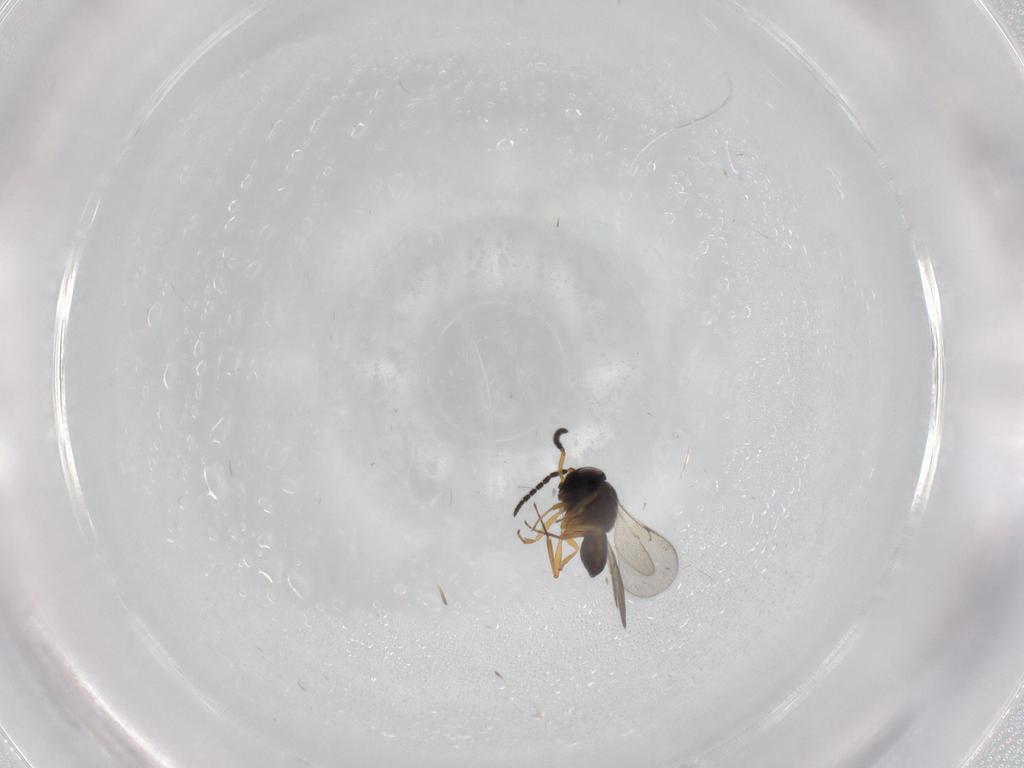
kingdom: Animalia
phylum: Arthropoda
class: Insecta
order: Coleoptera
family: Curculionidae
